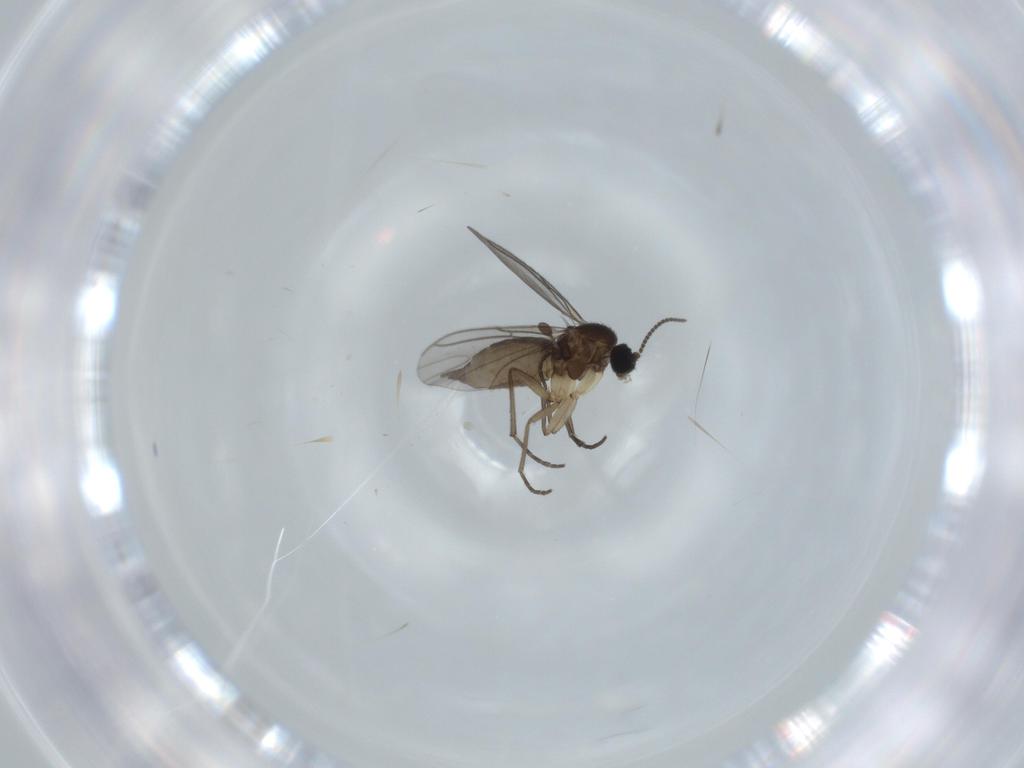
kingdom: Animalia
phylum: Arthropoda
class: Insecta
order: Diptera
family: Sciaridae
